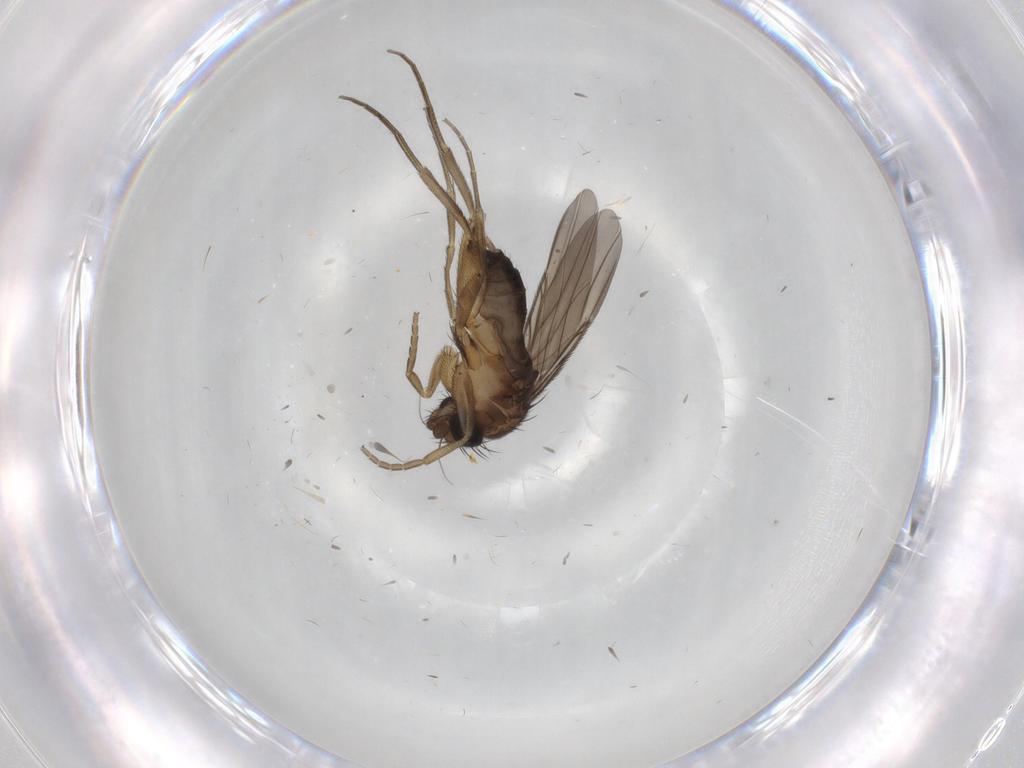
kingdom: Animalia
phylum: Arthropoda
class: Insecta
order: Diptera
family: Phoridae
